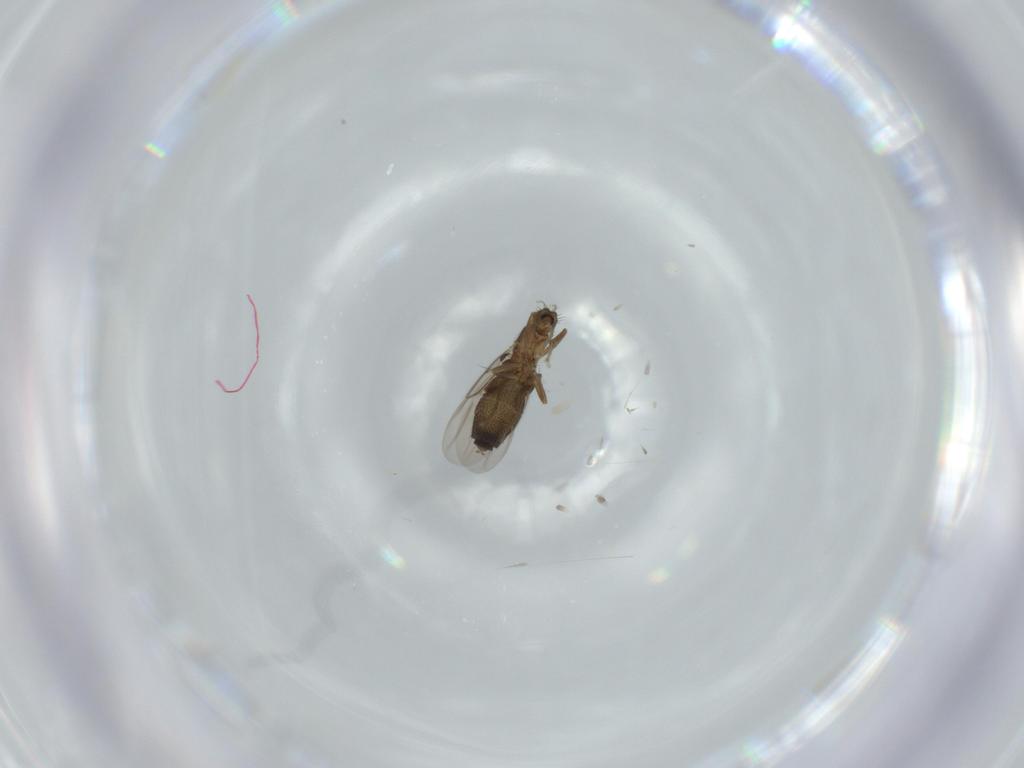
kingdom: Animalia
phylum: Arthropoda
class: Insecta
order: Diptera
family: Phoridae
